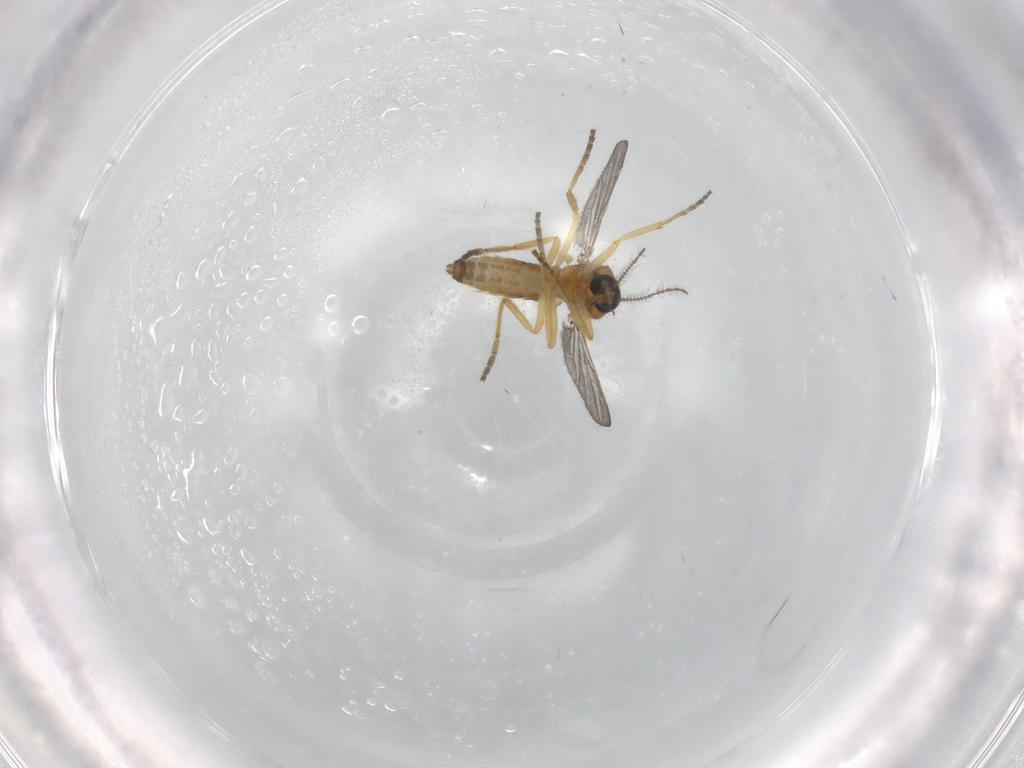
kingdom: Animalia
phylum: Arthropoda
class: Insecta
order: Diptera
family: Ceratopogonidae
